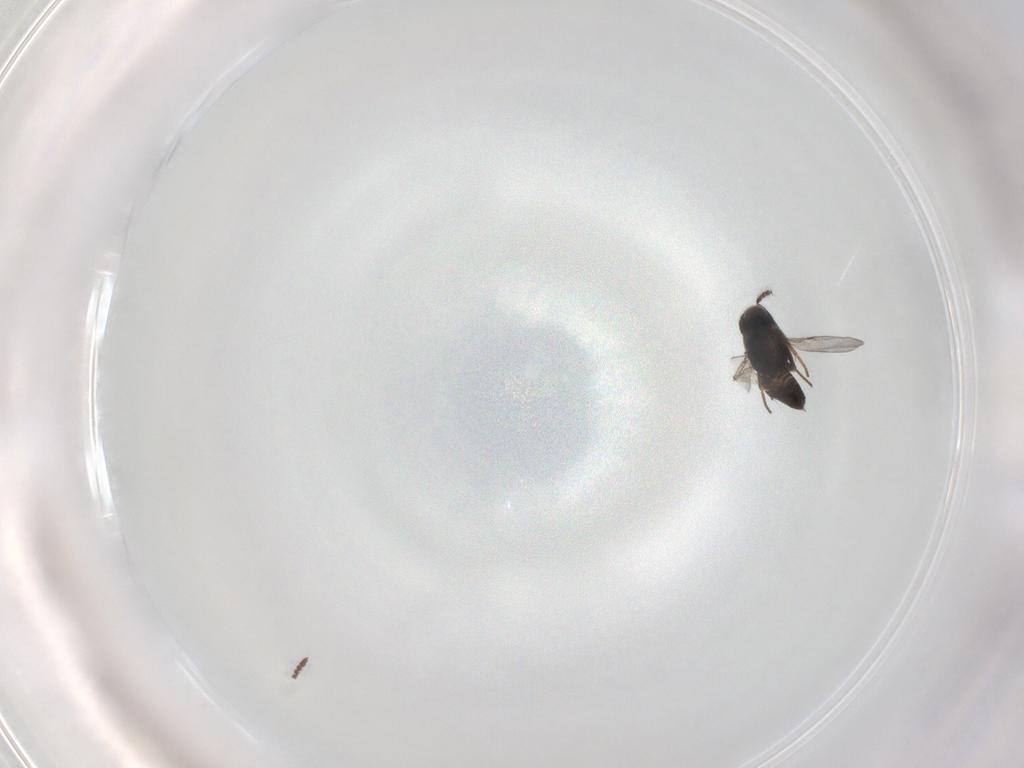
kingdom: Animalia
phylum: Arthropoda
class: Insecta
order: Hymenoptera
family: Encyrtidae
